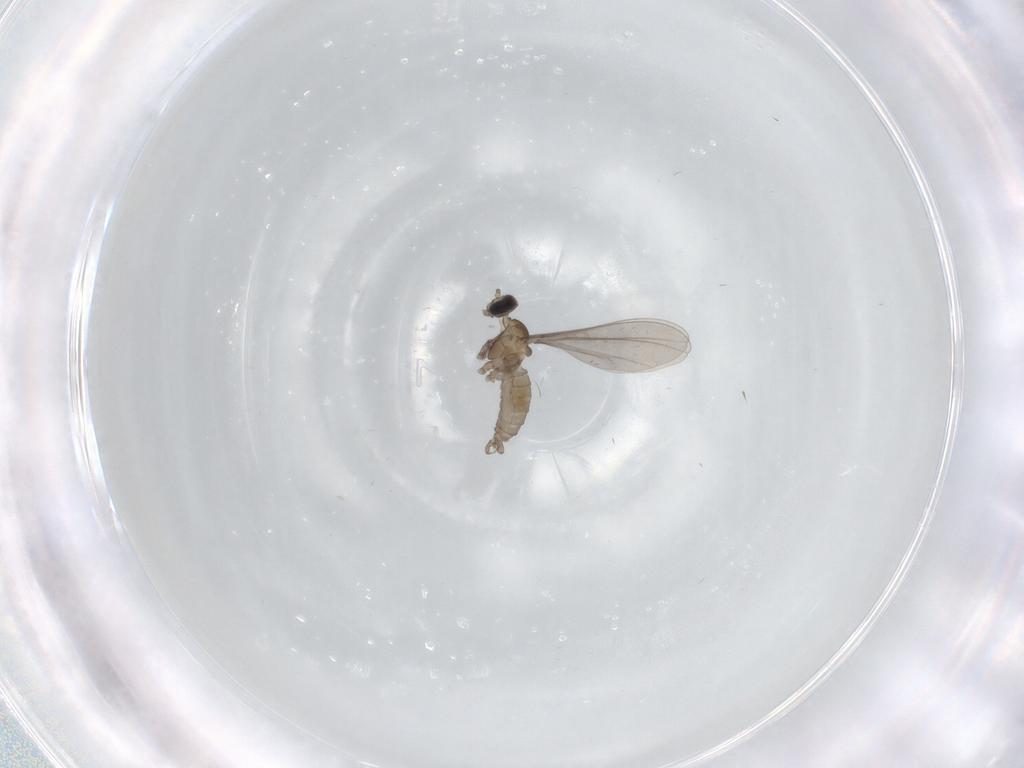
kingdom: Animalia
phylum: Arthropoda
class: Insecta
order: Diptera
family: Cecidomyiidae
